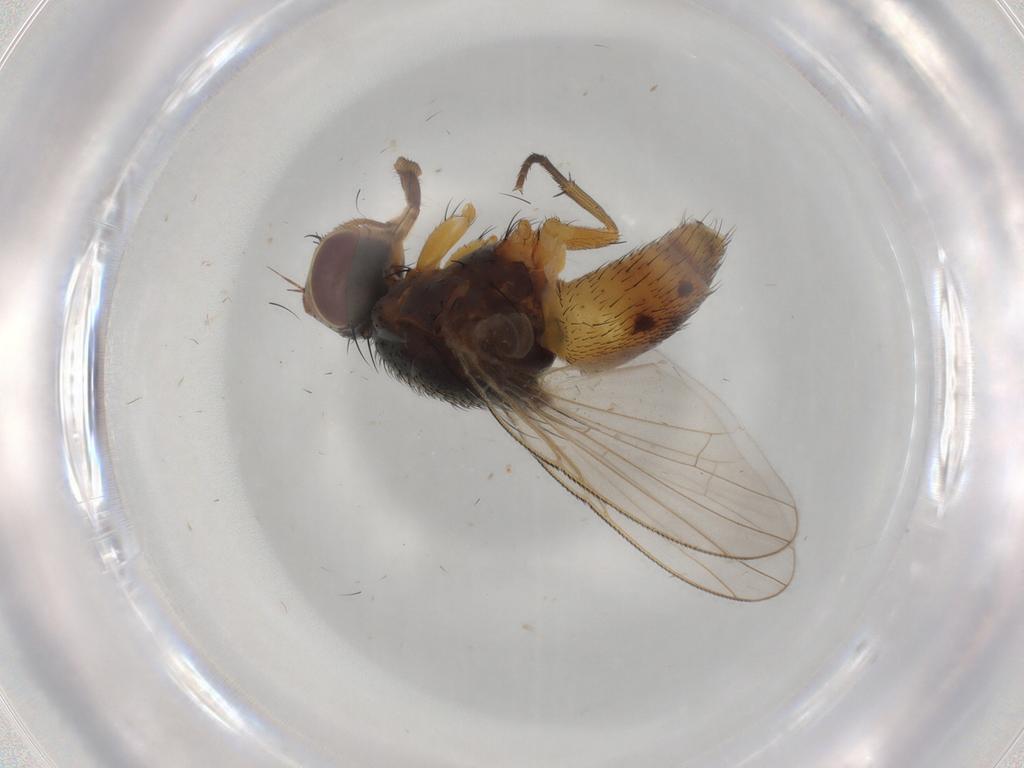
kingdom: Animalia
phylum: Arthropoda
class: Insecta
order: Diptera
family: Muscidae
